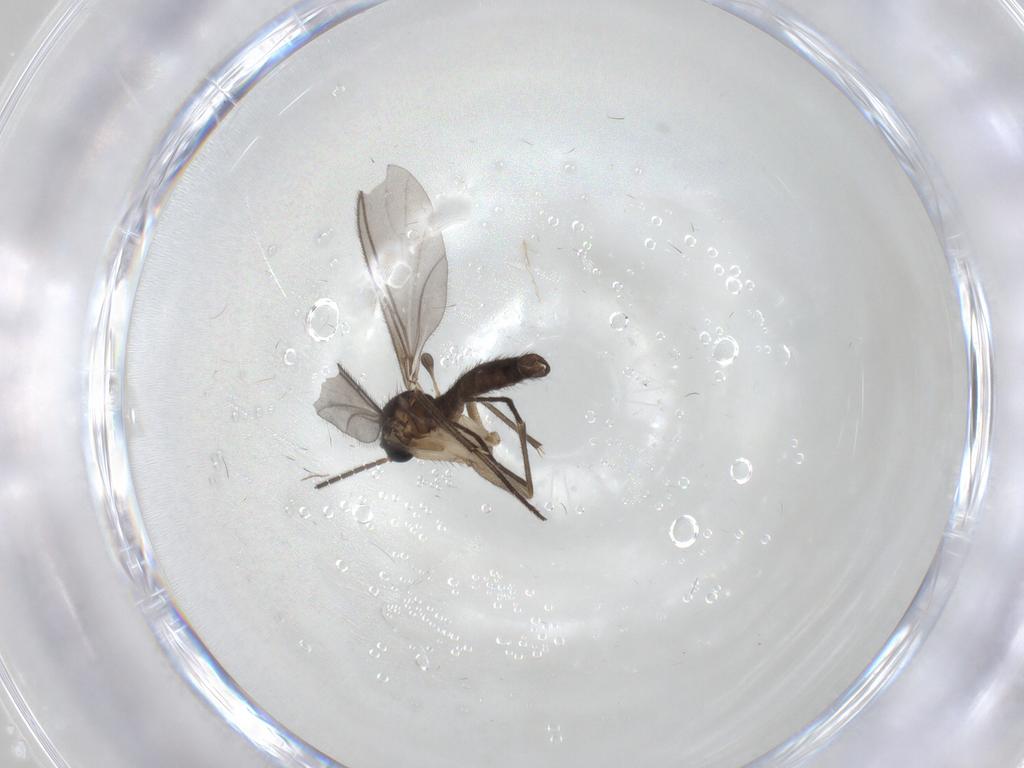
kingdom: Animalia
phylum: Arthropoda
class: Insecta
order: Diptera
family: Sciaridae
